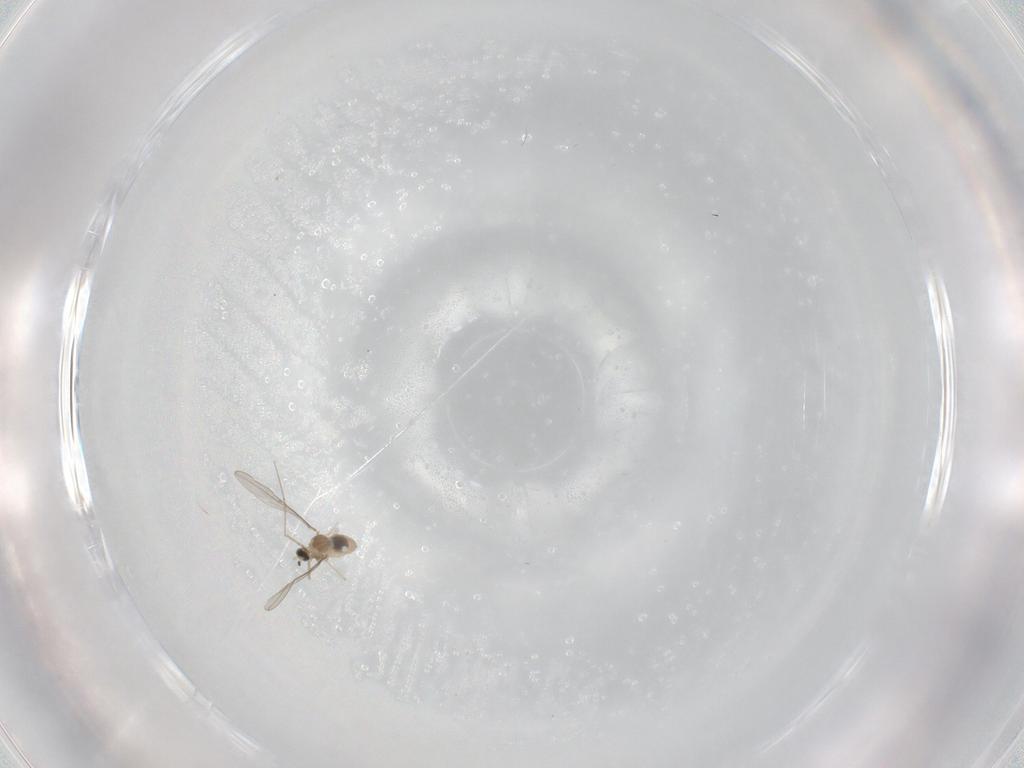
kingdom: Animalia
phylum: Arthropoda
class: Insecta
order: Diptera
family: Cecidomyiidae
